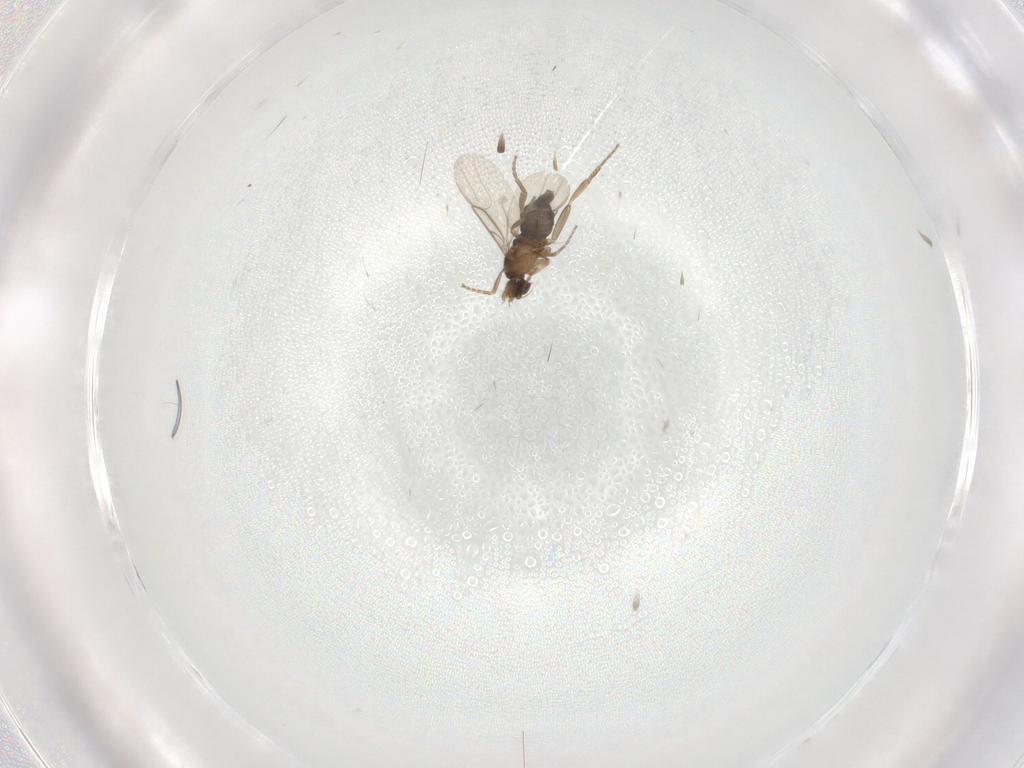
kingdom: Animalia
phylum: Arthropoda
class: Insecta
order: Diptera
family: Phoridae
